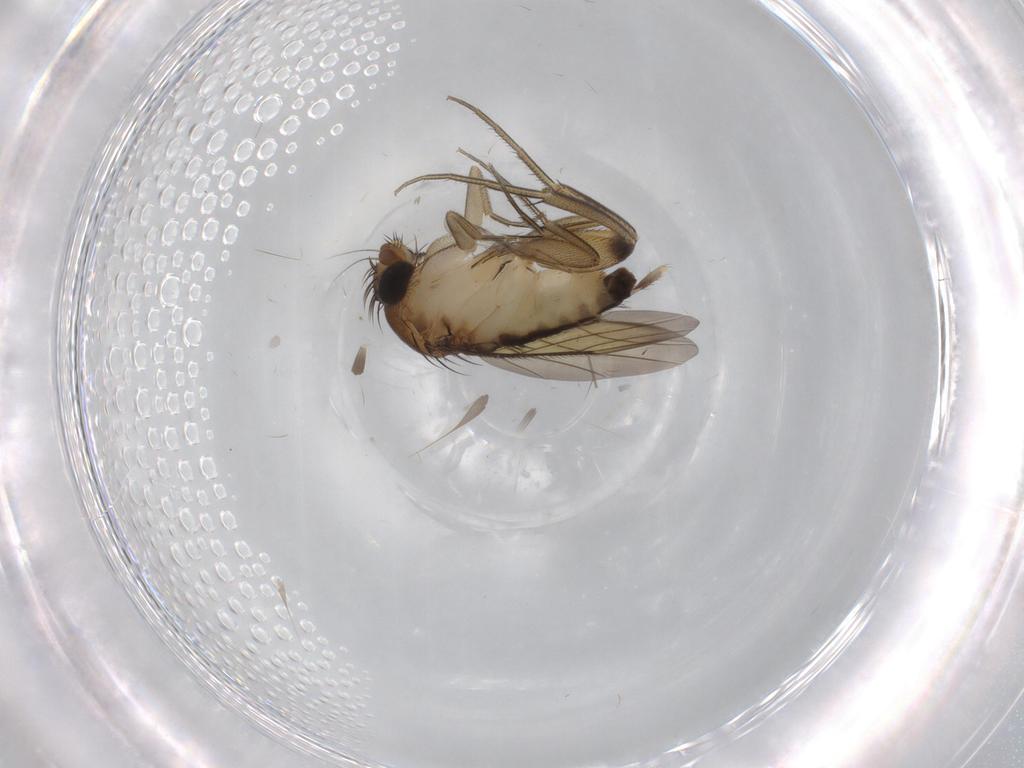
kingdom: Animalia
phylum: Arthropoda
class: Insecta
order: Diptera
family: Phoridae
